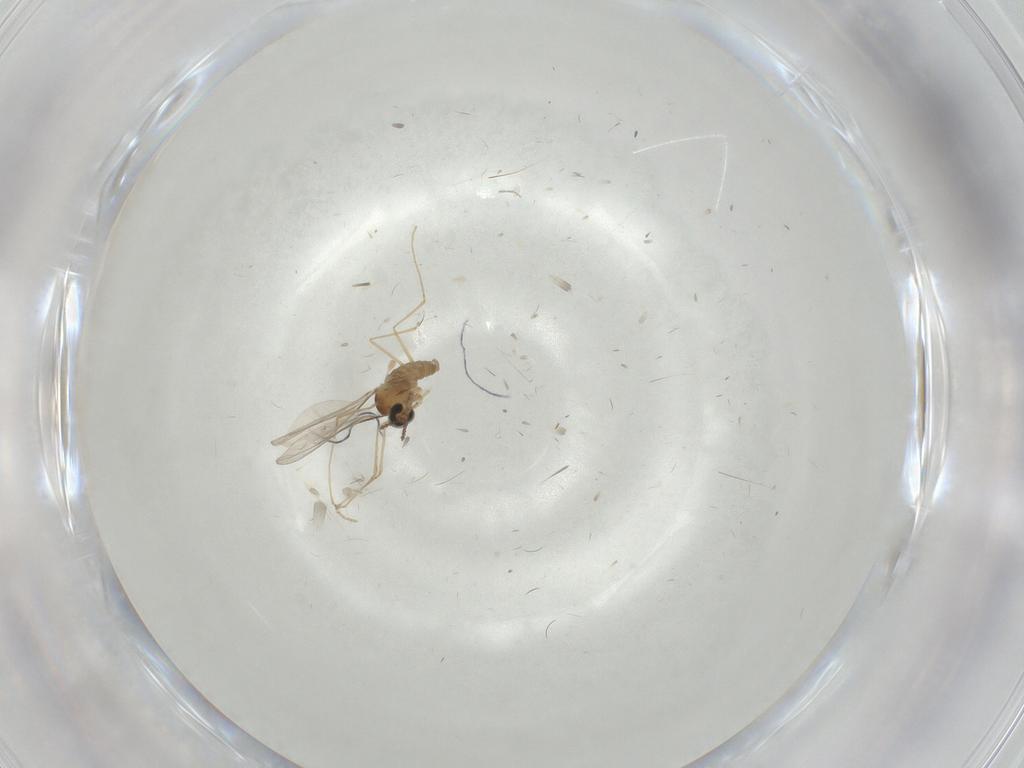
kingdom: Animalia
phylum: Arthropoda
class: Insecta
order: Diptera
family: Cecidomyiidae
